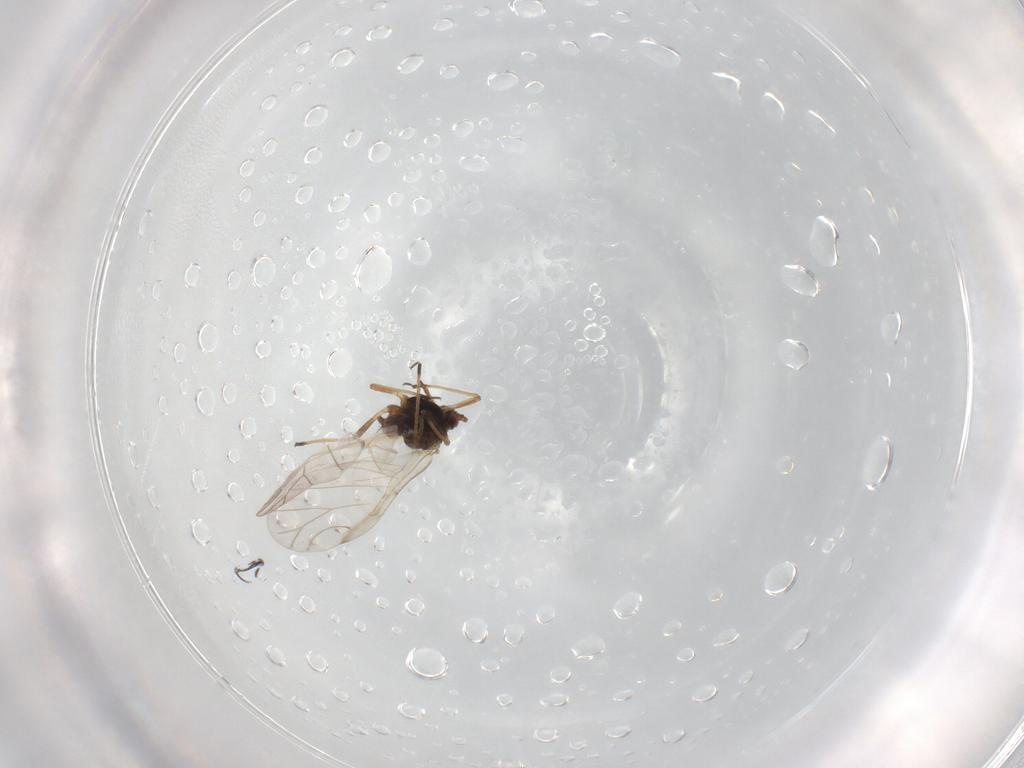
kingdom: Animalia
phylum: Arthropoda
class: Insecta
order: Hemiptera
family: Aphididae
